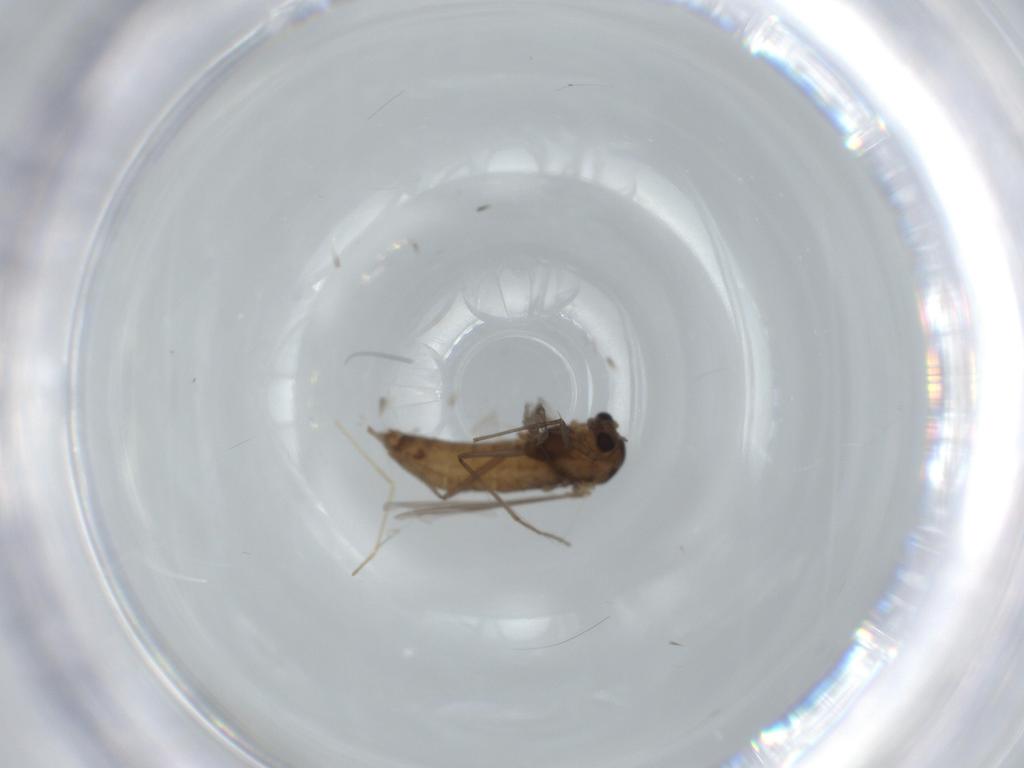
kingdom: Animalia
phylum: Arthropoda
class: Insecta
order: Diptera
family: Chironomidae
